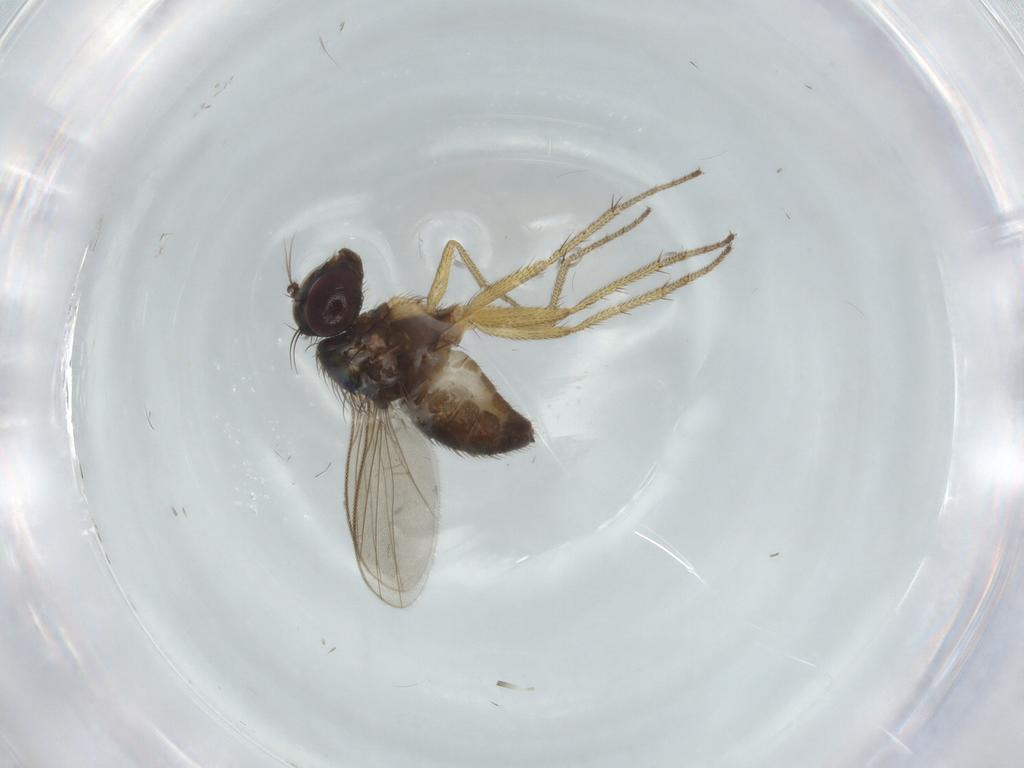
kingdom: Animalia
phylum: Arthropoda
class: Insecta
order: Diptera
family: Dolichopodidae
